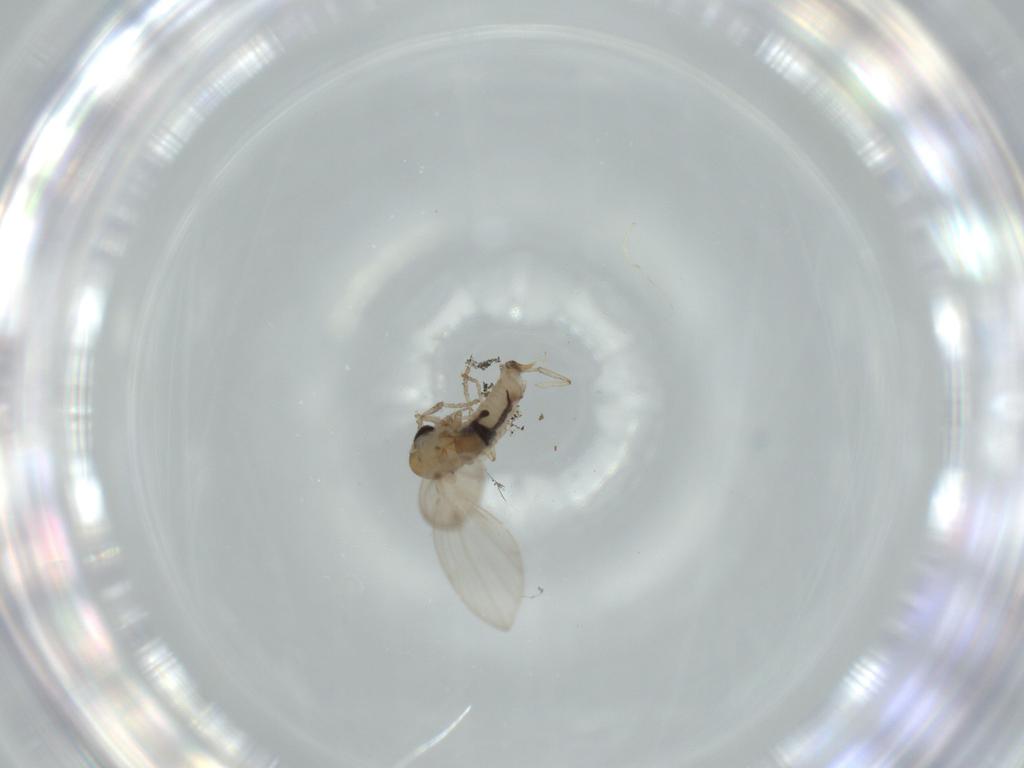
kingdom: Animalia
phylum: Arthropoda
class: Insecta
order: Diptera
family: Psychodidae
